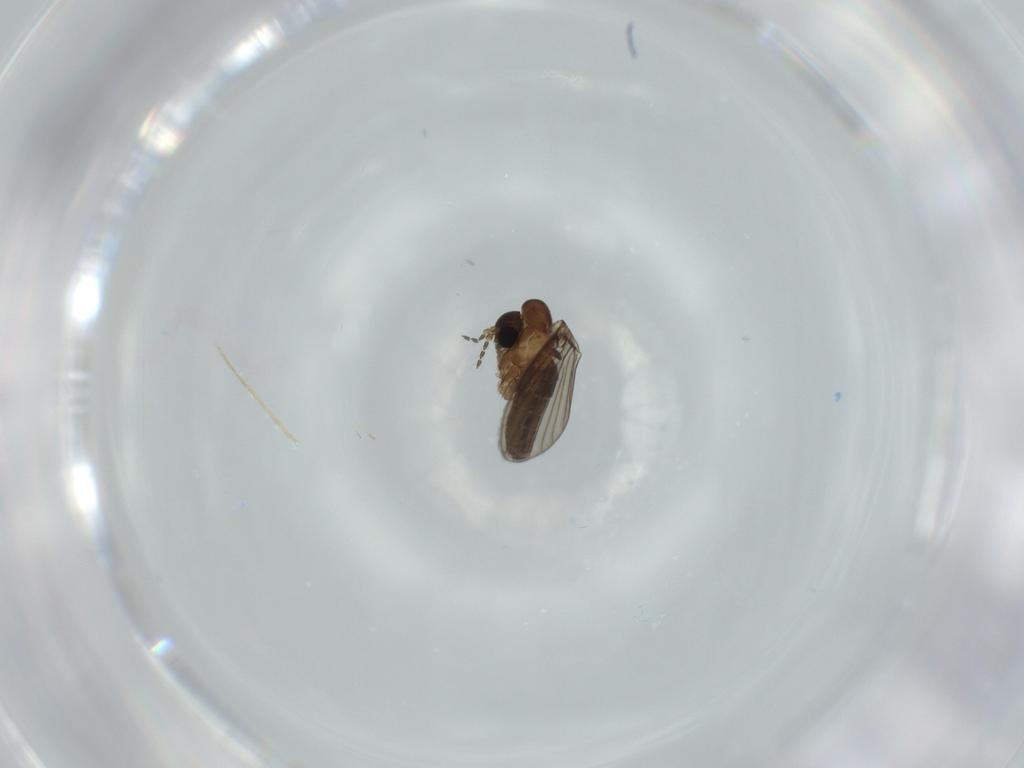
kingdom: Animalia
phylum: Arthropoda
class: Insecta
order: Diptera
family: Psychodidae
